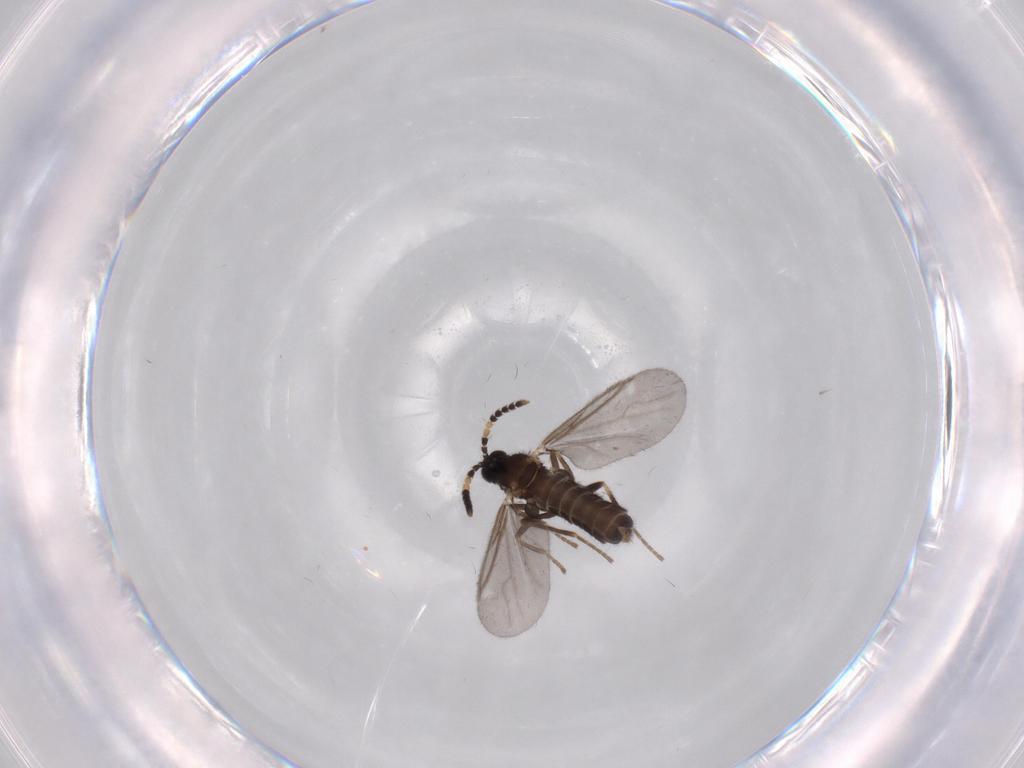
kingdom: Animalia
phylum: Arthropoda
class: Insecta
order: Diptera
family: Scatopsidae
